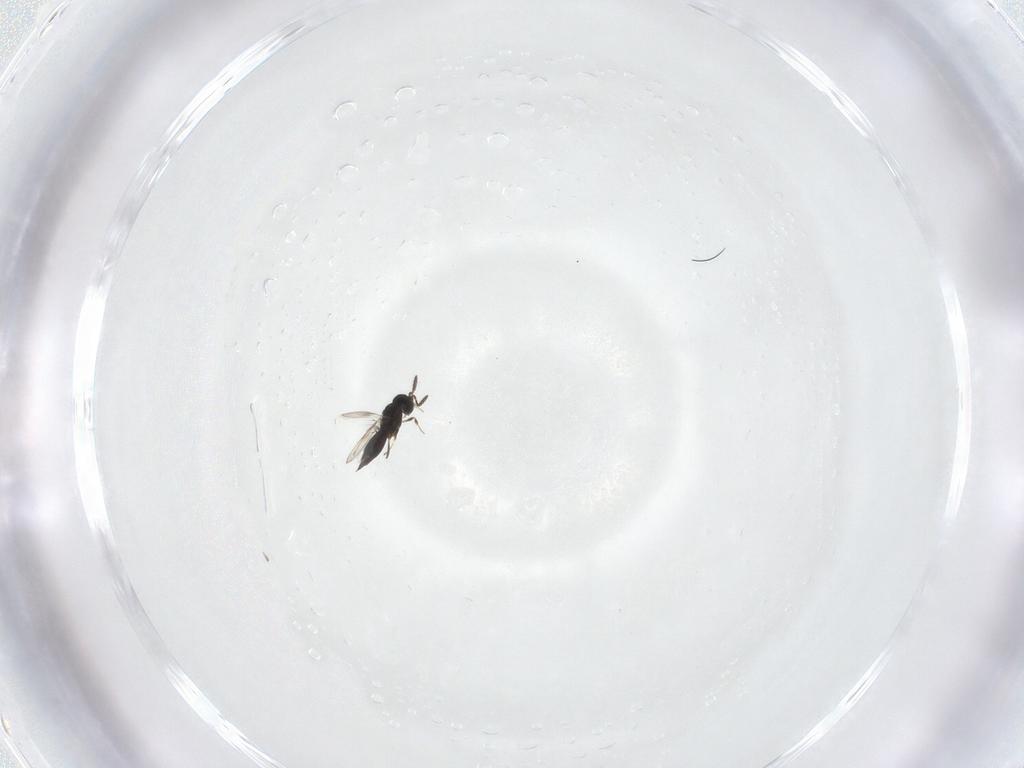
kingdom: Animalia
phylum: Arthropoda
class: Insecta
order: Hymenoptera
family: Scelionidae
